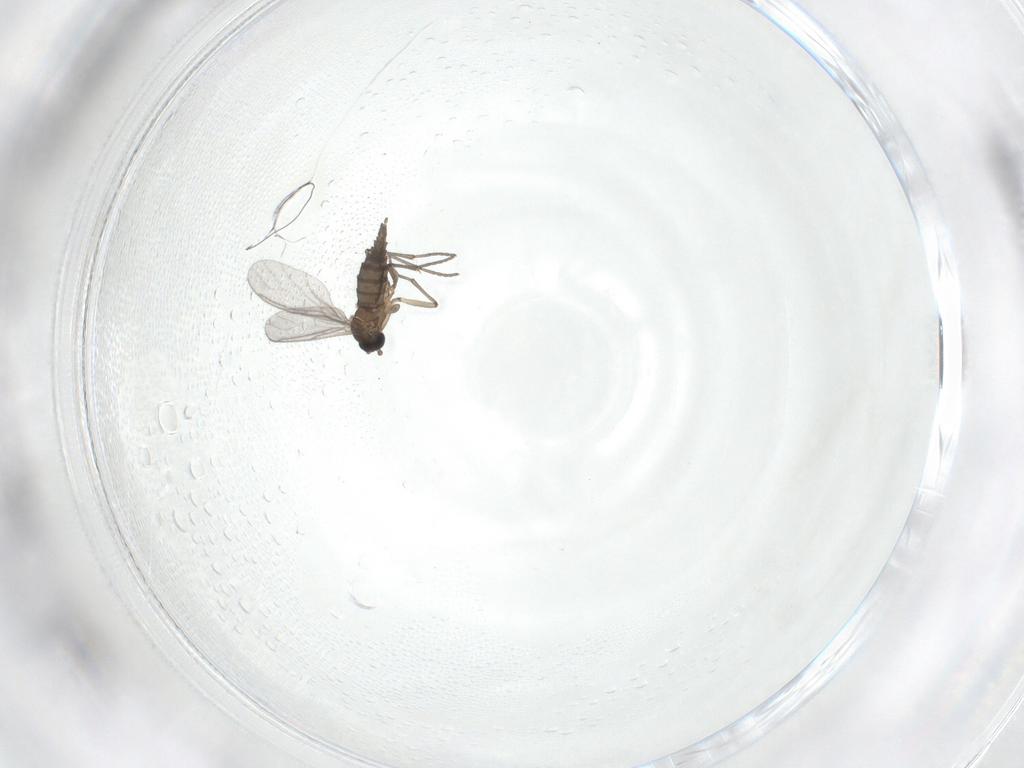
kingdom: Animalia
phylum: Arthropoda
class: Insecta
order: Diptera
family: Sciaridae
